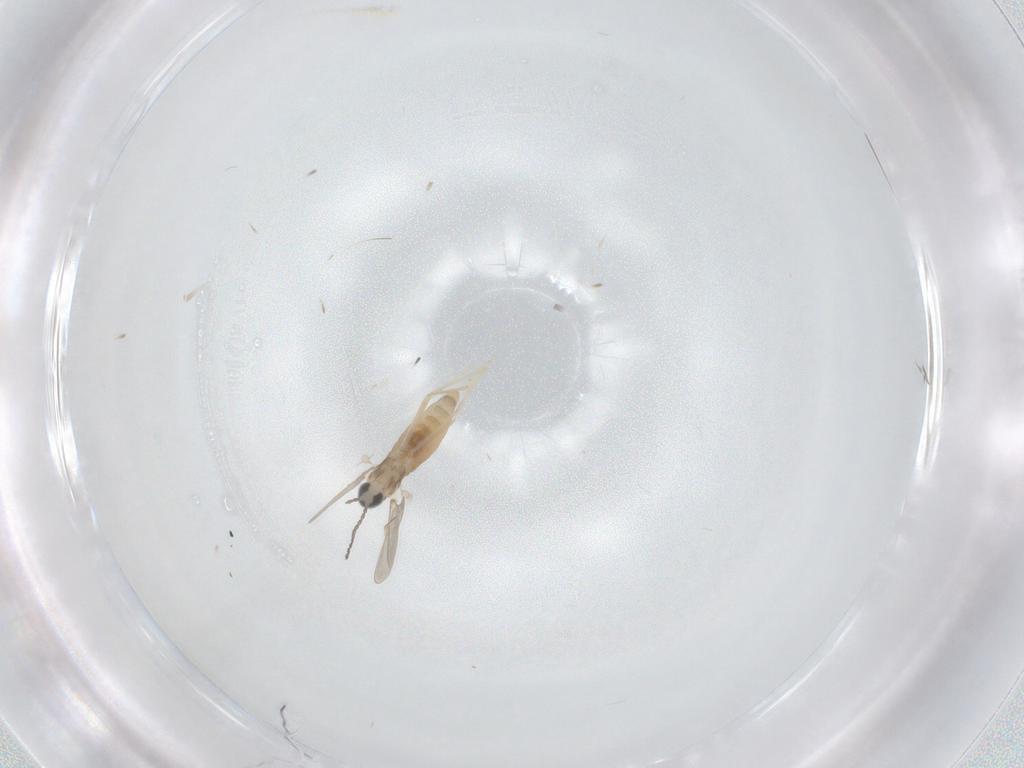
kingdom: Animalia
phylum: Arthropoda
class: Insecta
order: Diptera
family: Cecidomyiidae
